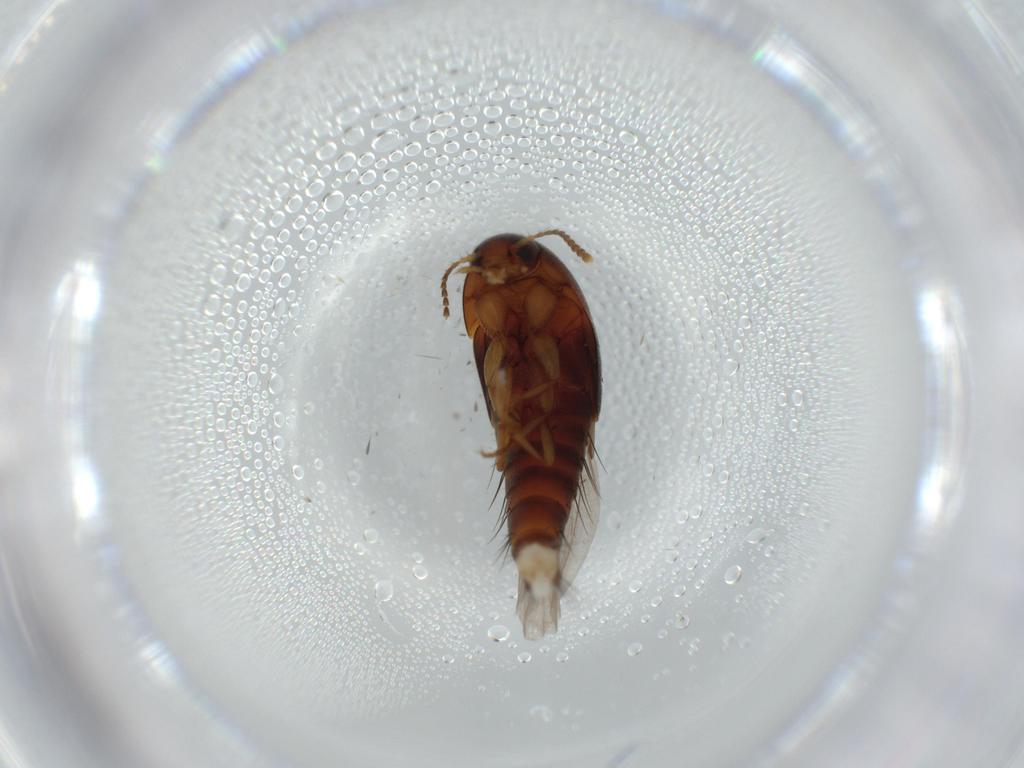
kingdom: Animalia
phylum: Arthropoda
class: Insecta
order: Coleoptera
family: Staphylinidae
